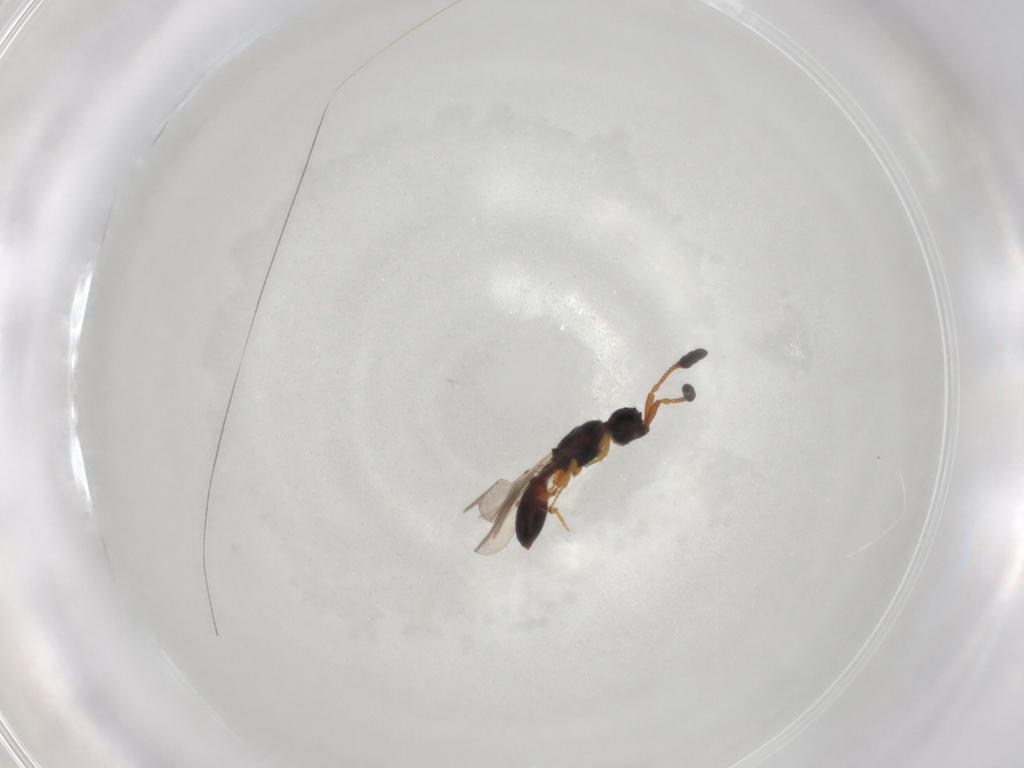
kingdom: Animalia
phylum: Arthropoda
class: Insecta
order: Hymenoptera
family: Diapriidae
